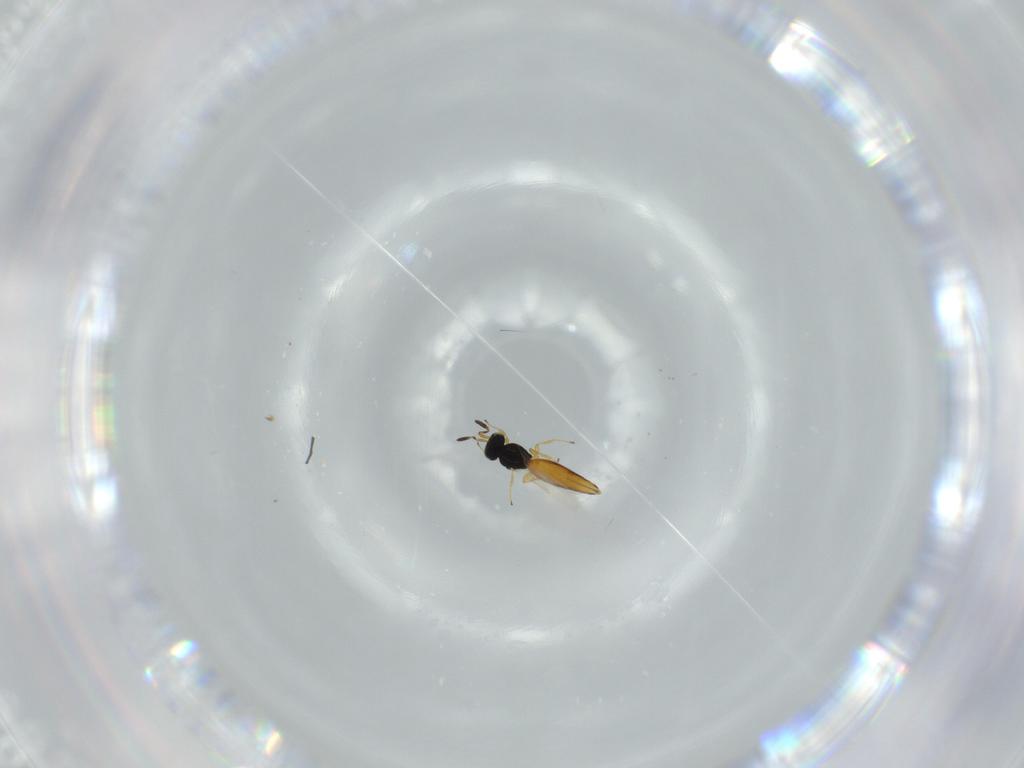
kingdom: Animalia
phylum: Arthropoda
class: Insecta
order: Hymenoptera
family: Scelionidae
